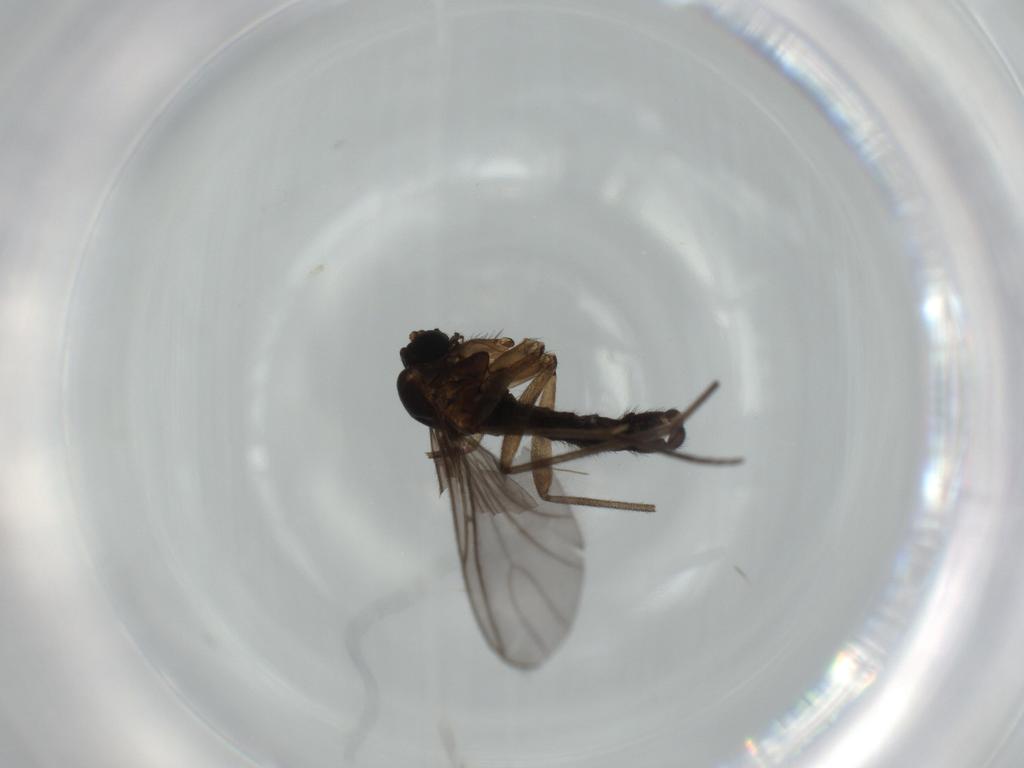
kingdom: Animalia
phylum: Arthropoda
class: Insecta
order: Diptera
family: Sciaridae
